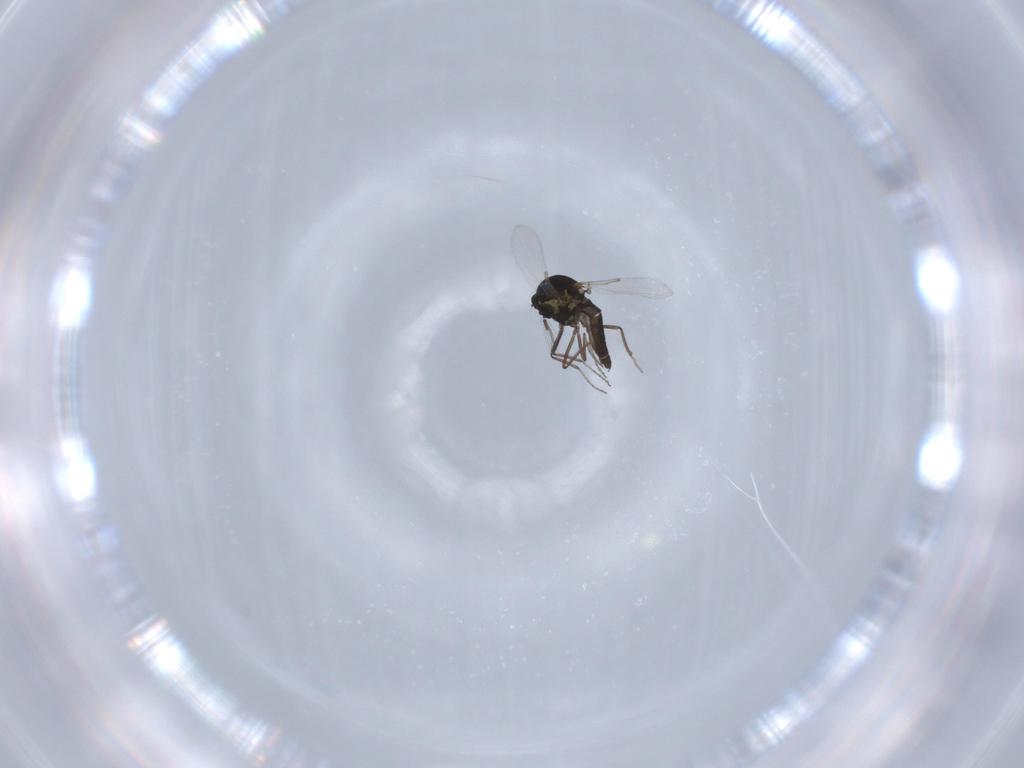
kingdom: Animalia
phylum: Arthropoda
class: Insecta
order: Diptera
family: Ceratopogonidae
